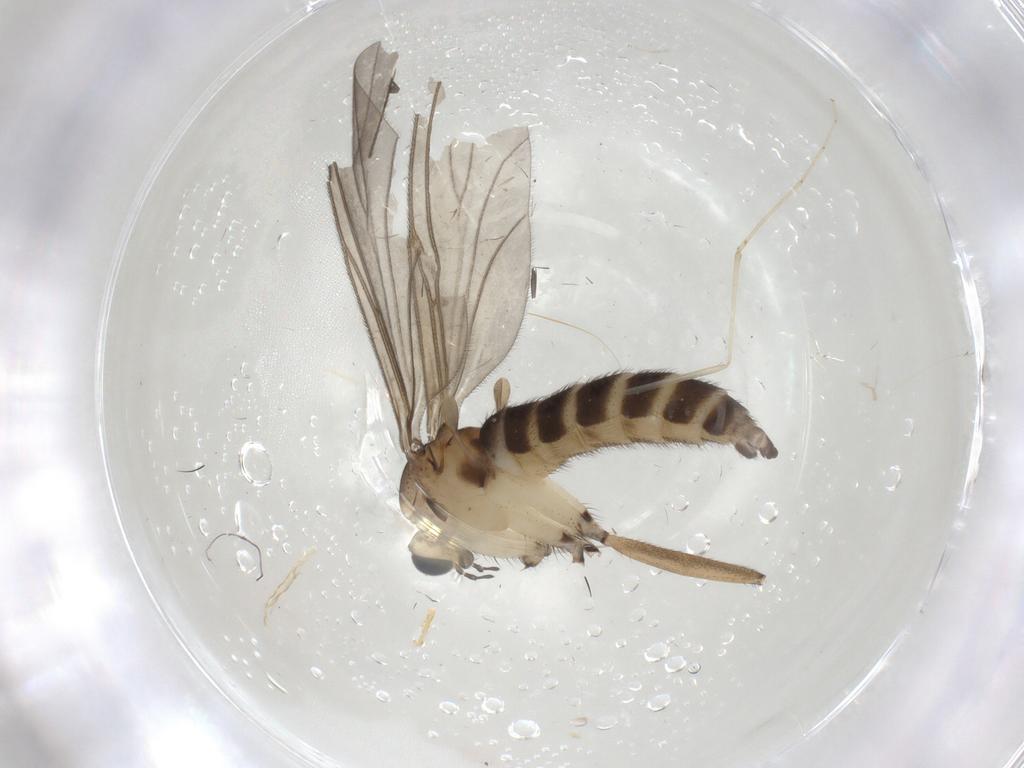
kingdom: Animalia
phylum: Arthropoda
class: Insecta
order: Diptera
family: Sciaridae
